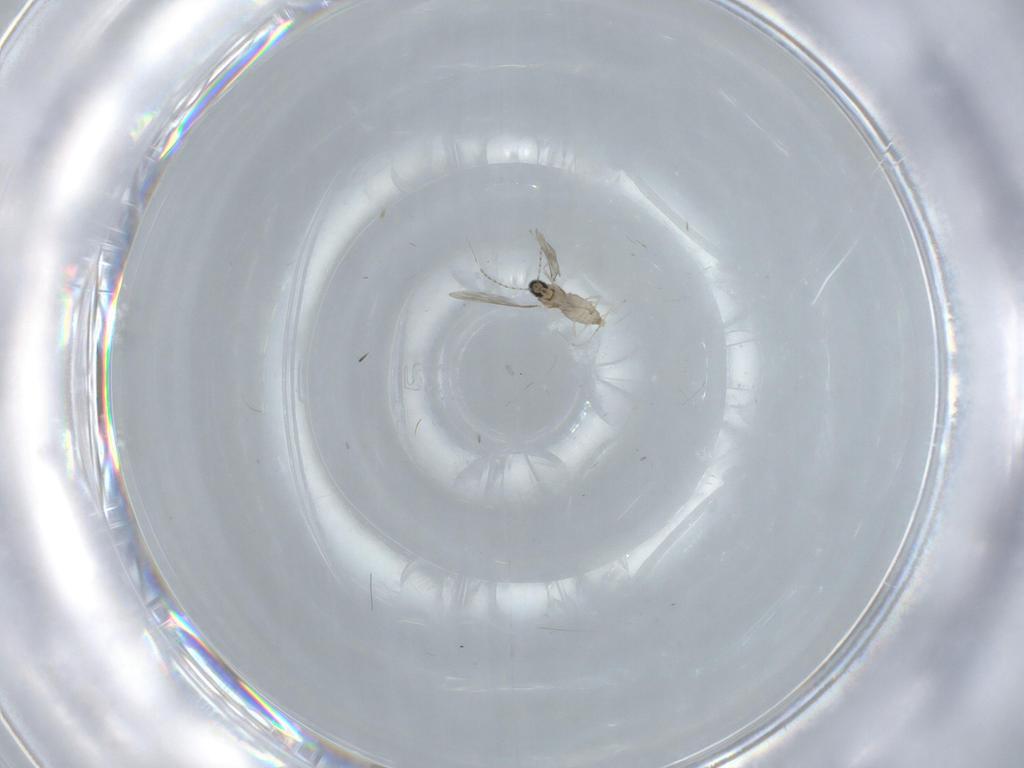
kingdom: Animalia
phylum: Arthropoda
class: Insecta
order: Diptera
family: Cecidomyiidae
